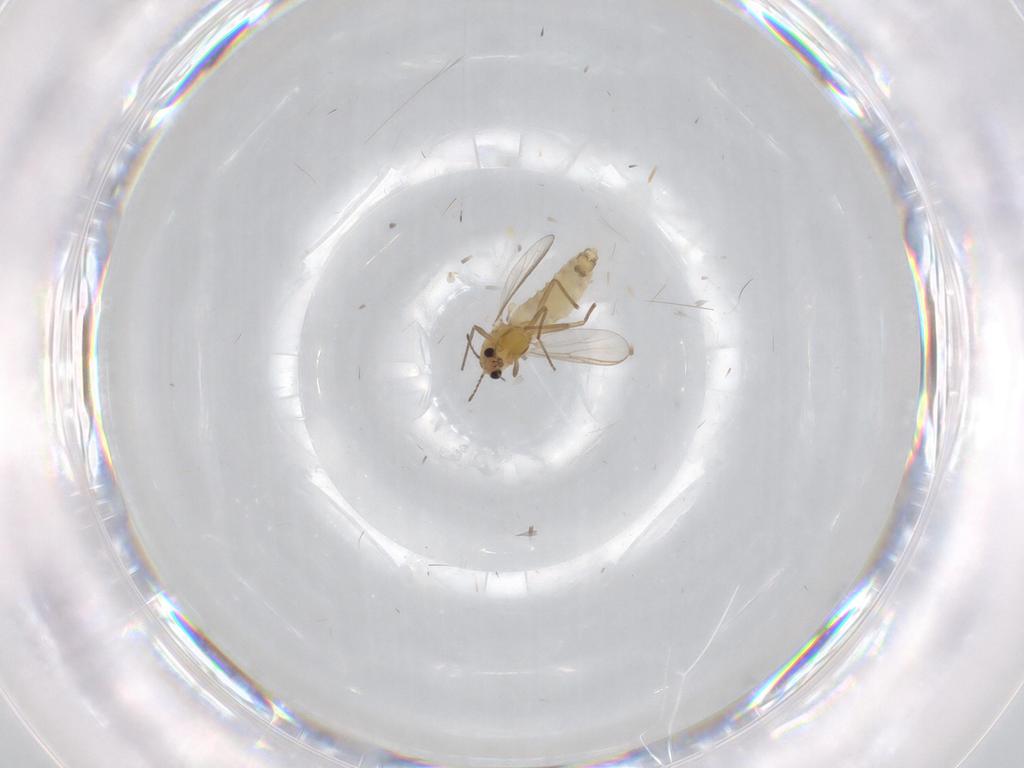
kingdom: Animalia
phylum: Arthropoda
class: Insecta
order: Diptera
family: Chironomidae
